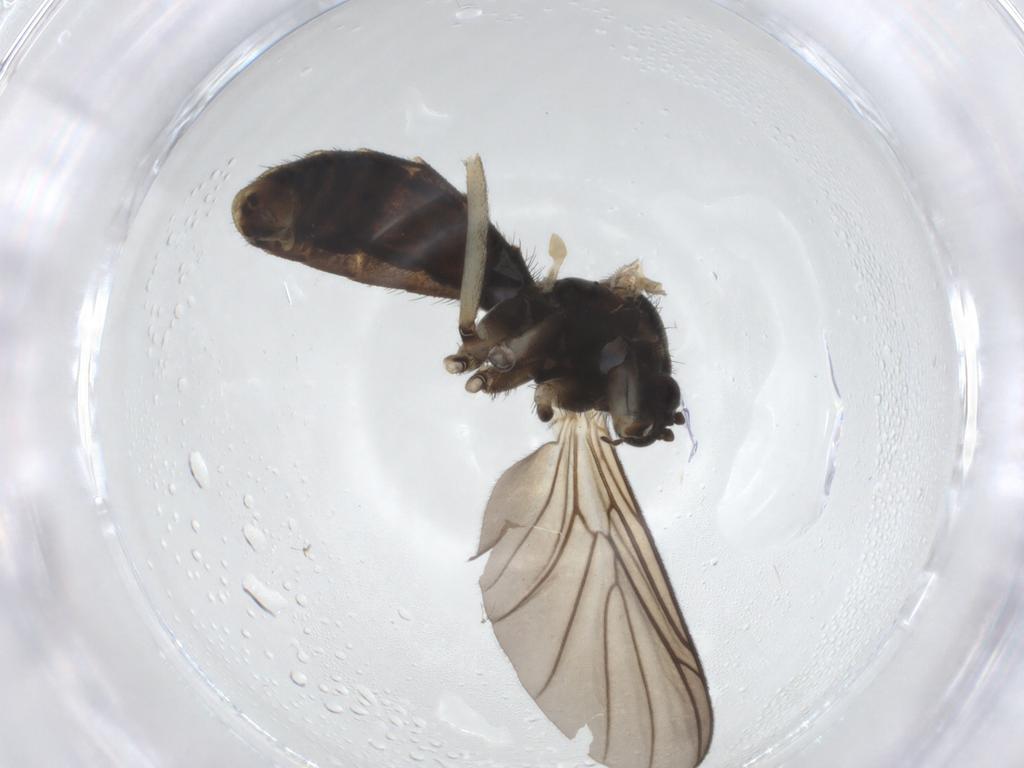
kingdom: Animalia
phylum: Arthropoda
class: Insecta
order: Diptera
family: Keroplatidae
